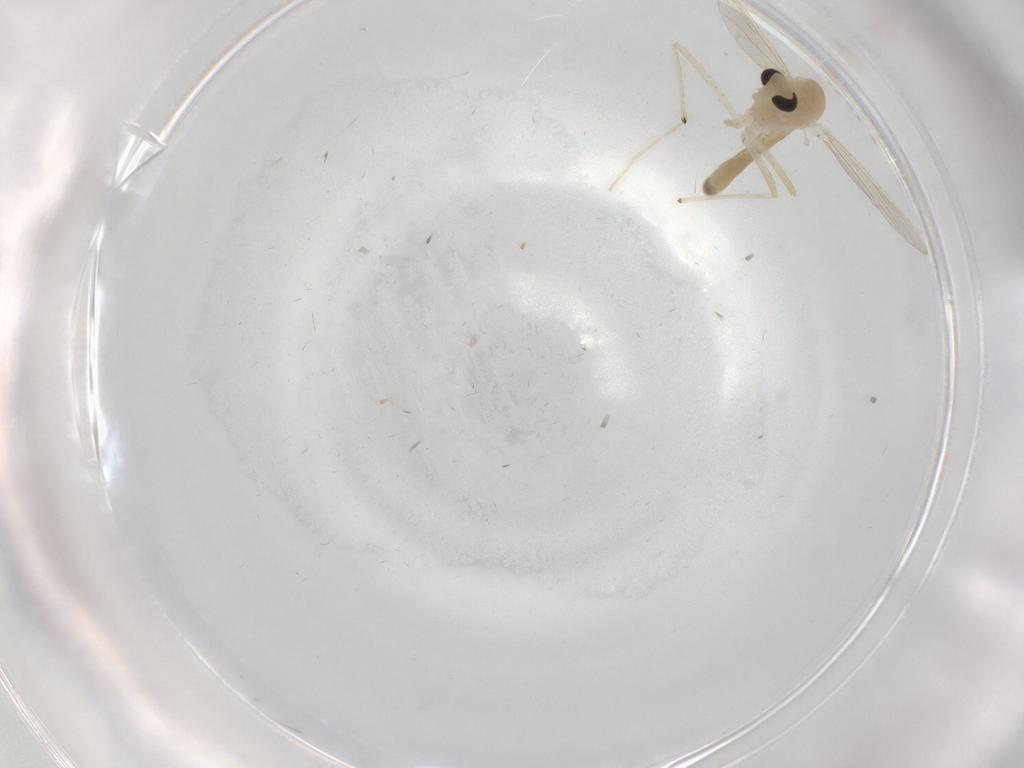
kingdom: Animalia
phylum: Arthropoda
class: Insecta
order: Diptera
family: Chironomidae
